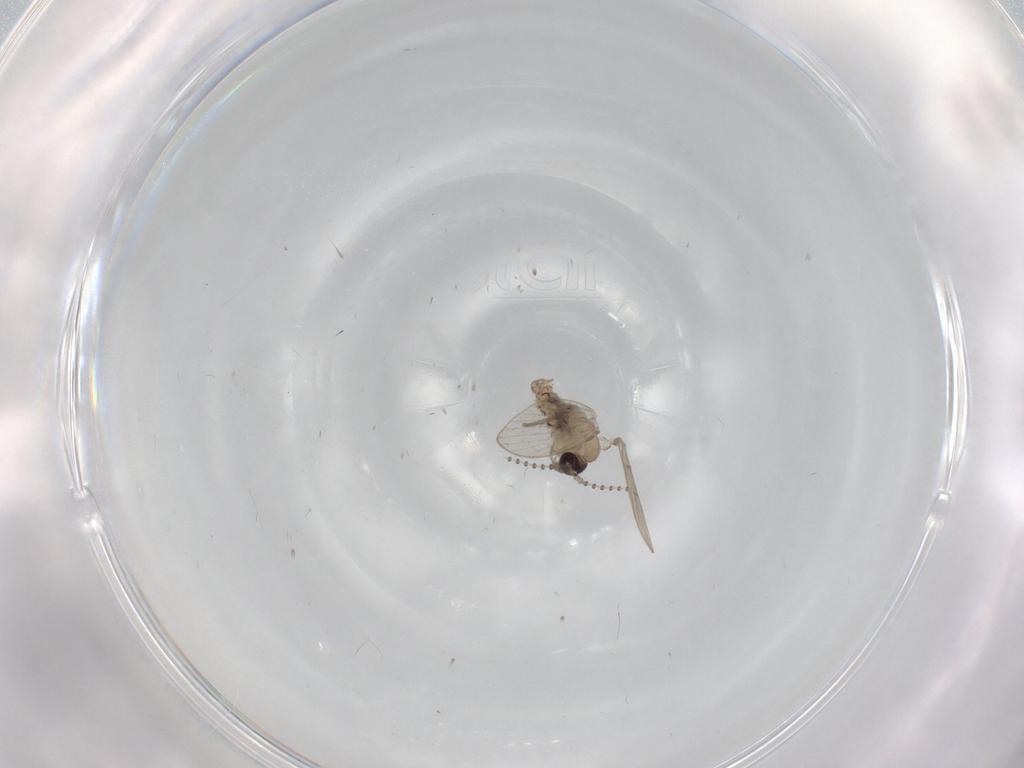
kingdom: Animalia
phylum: Arthropoda
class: Insecta
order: Diptera
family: Psychodidae
